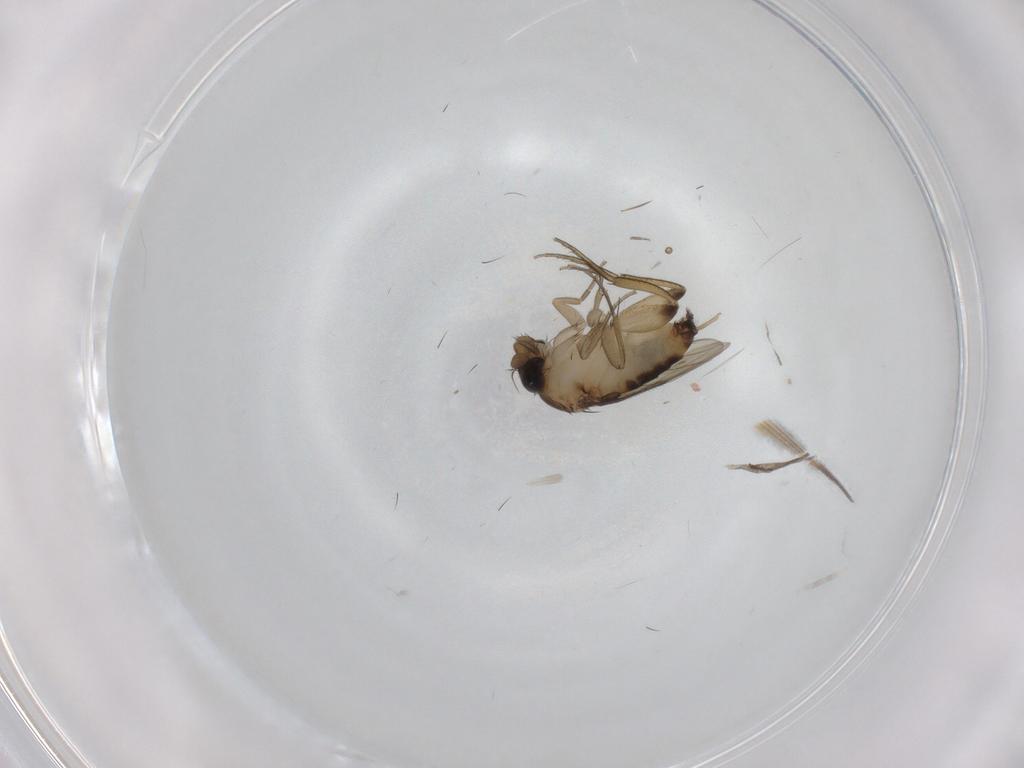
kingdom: Animalia
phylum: Arthropoda
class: Insecta
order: Diptera
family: Phoridae
